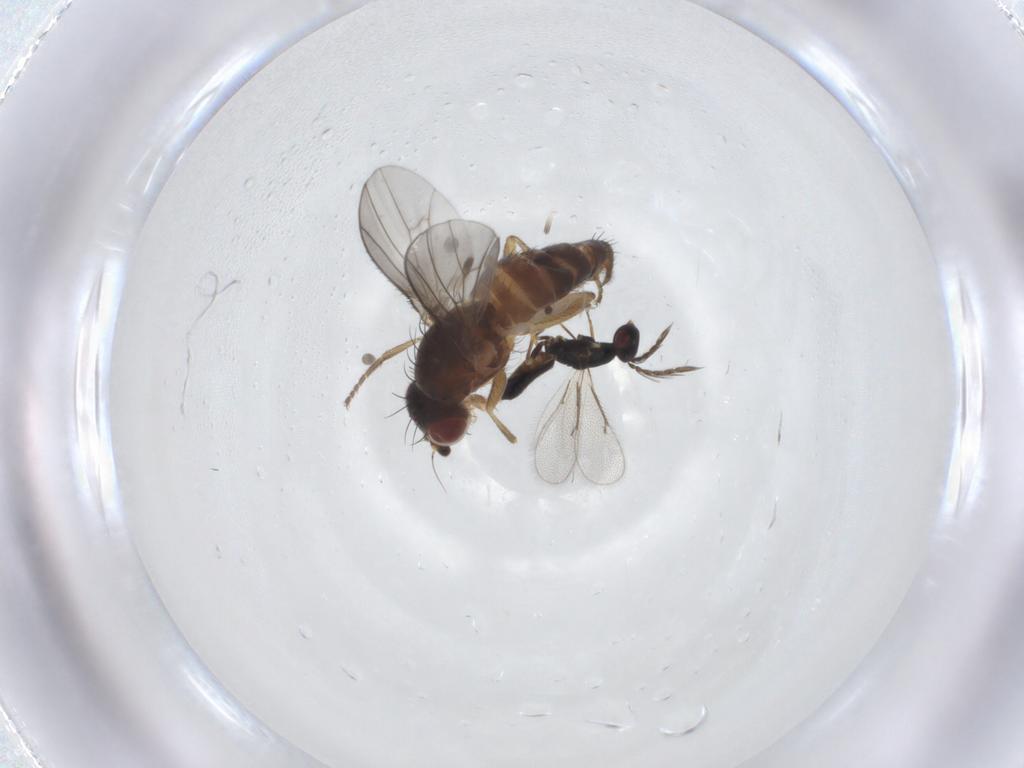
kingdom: Animalia
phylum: Arthropoda
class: Insecta
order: Diptera
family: Heleomyzidae
